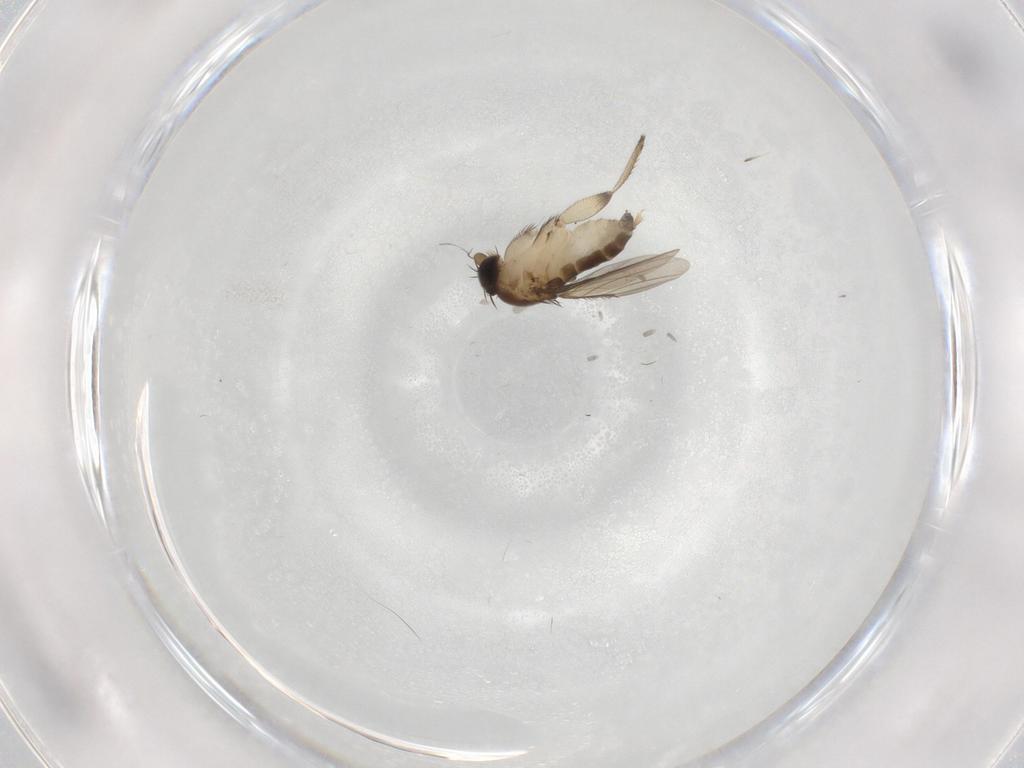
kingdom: Animalia
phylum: Arthropoda
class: Insecta
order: Diptera
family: Phoridae
